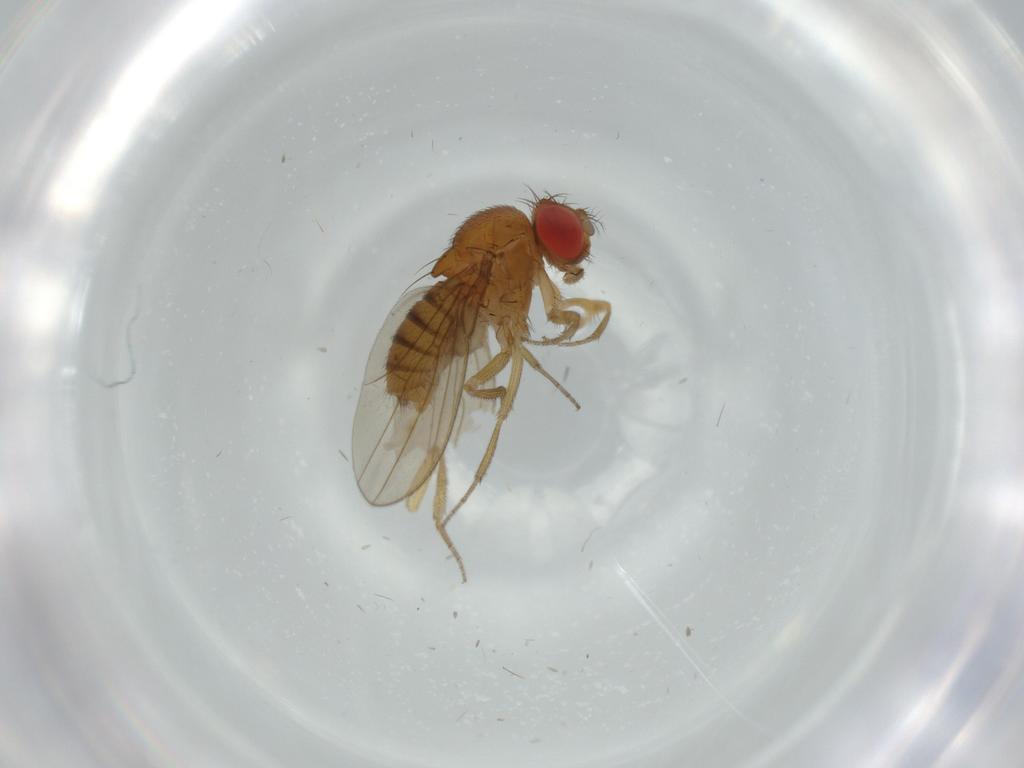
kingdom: Animalia
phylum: Arthropoda
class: Insecta
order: Diptera
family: Drosophilidae
